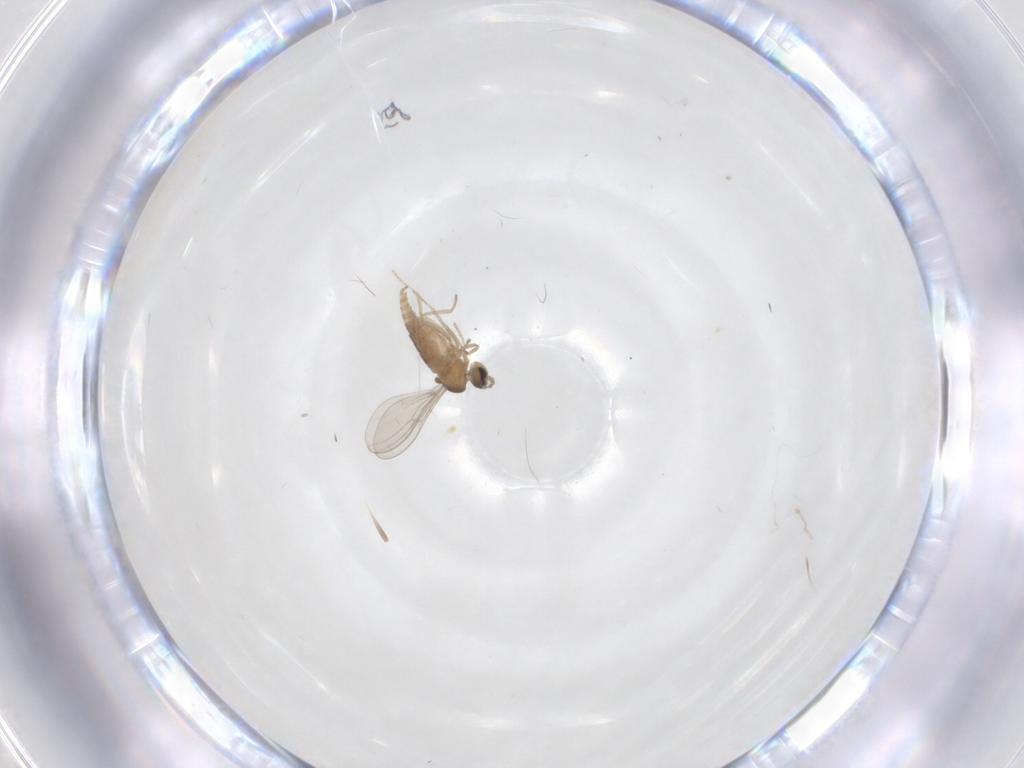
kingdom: Animalia
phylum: Arthropoda
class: Insecta
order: Diptera
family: Cecidomyiidae
